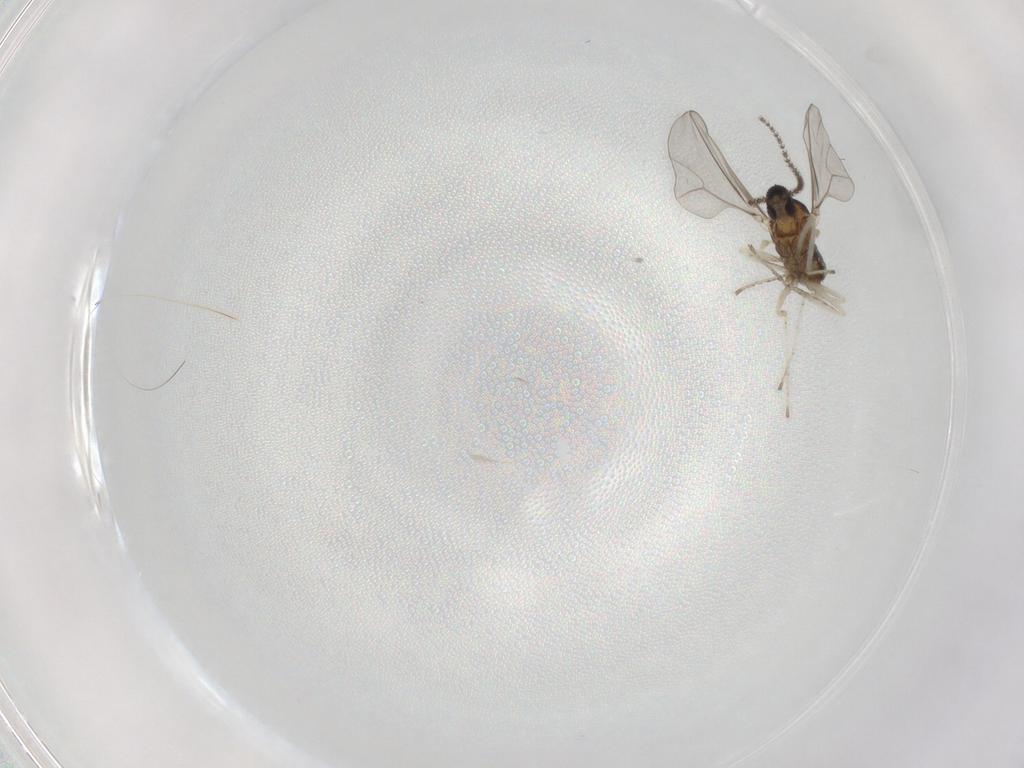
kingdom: Animalia
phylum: Arthropoda
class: Insecta
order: Diptera
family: Cecidomyiidae
